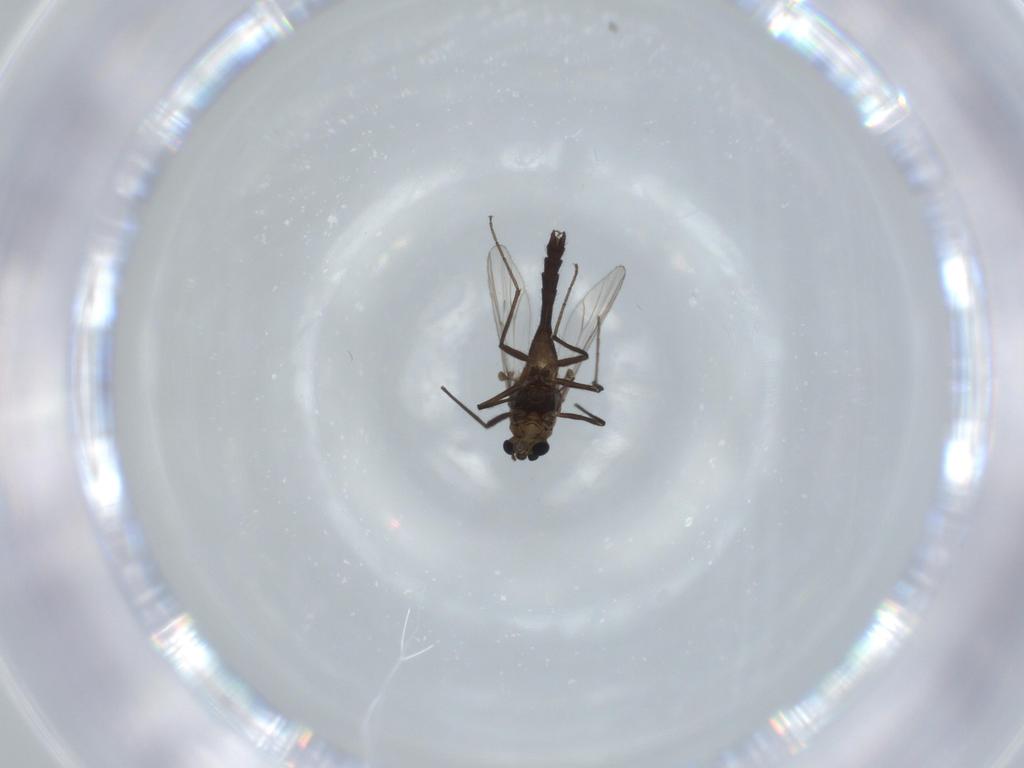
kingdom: Animalia
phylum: Arthropoda
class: Insecta
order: Diptera
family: Chironomidae
